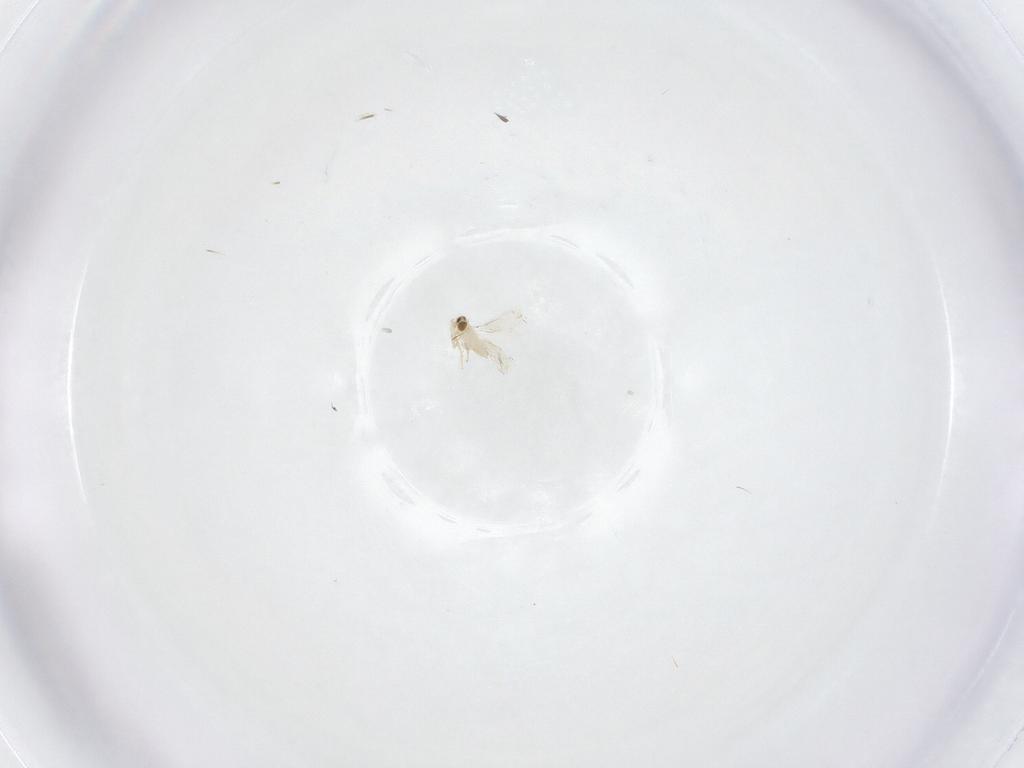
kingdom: Animalia
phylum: Arthropoda
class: Insecta
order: Hymenoptera
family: Aphelinidae
